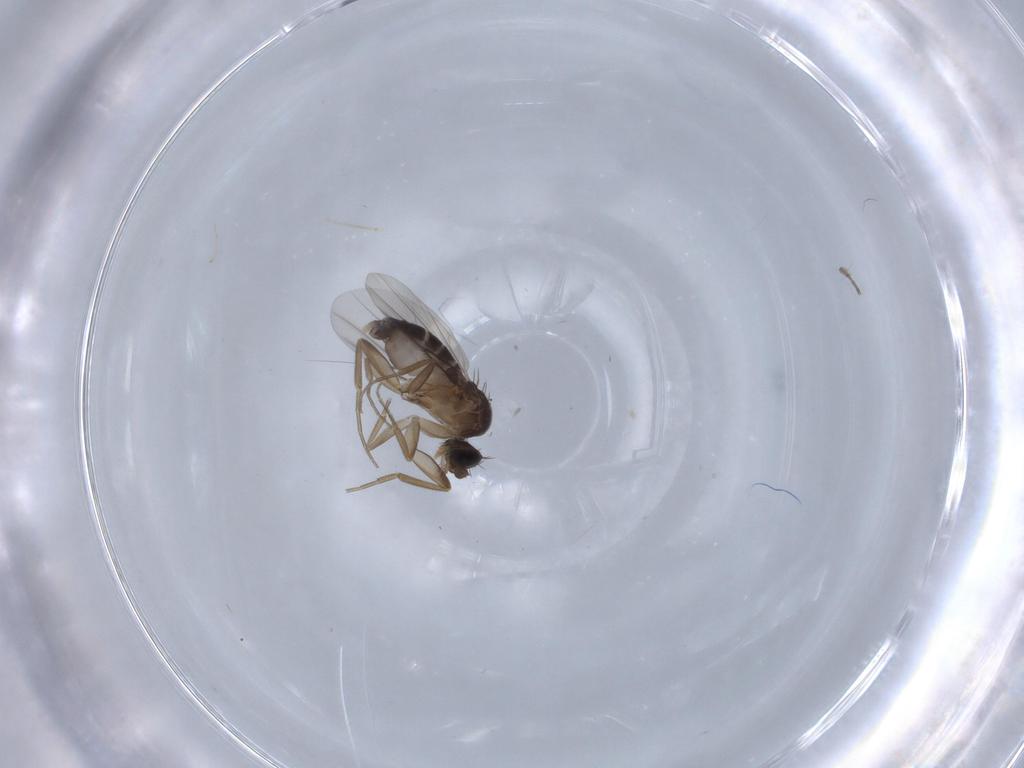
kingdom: Animalia
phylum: Arthropoda
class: Insecta
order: Diptera
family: Phoridae
